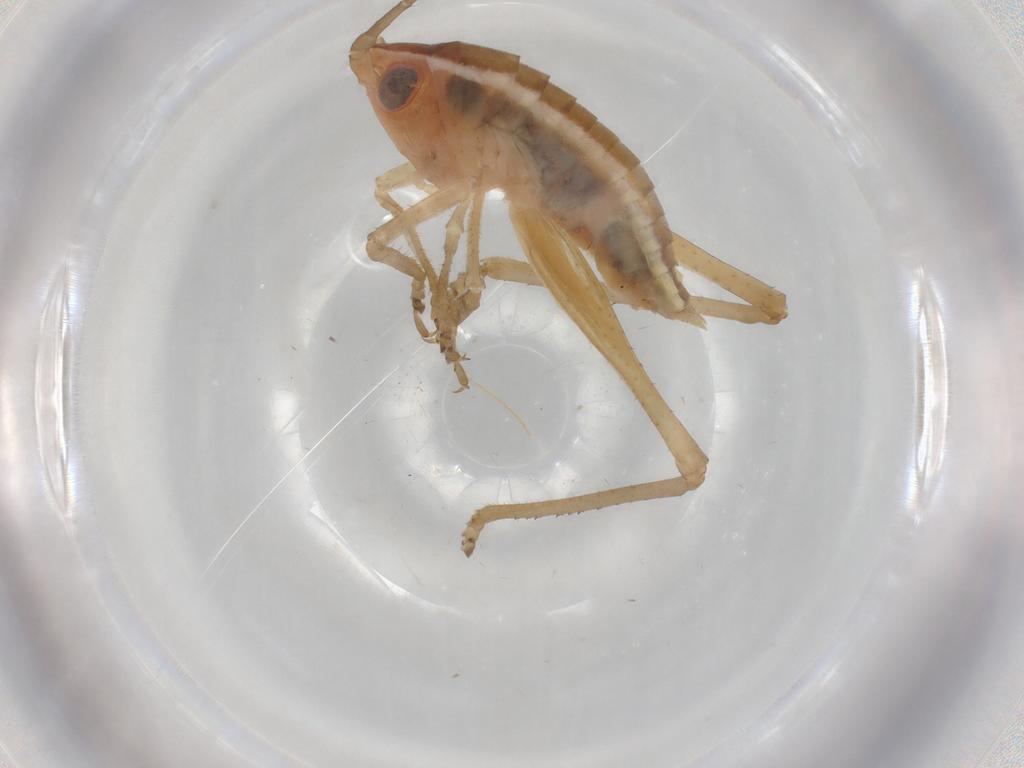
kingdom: Animalia
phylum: Arthropoda
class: Insecta
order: Orthoptera
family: Tettigoniidae
